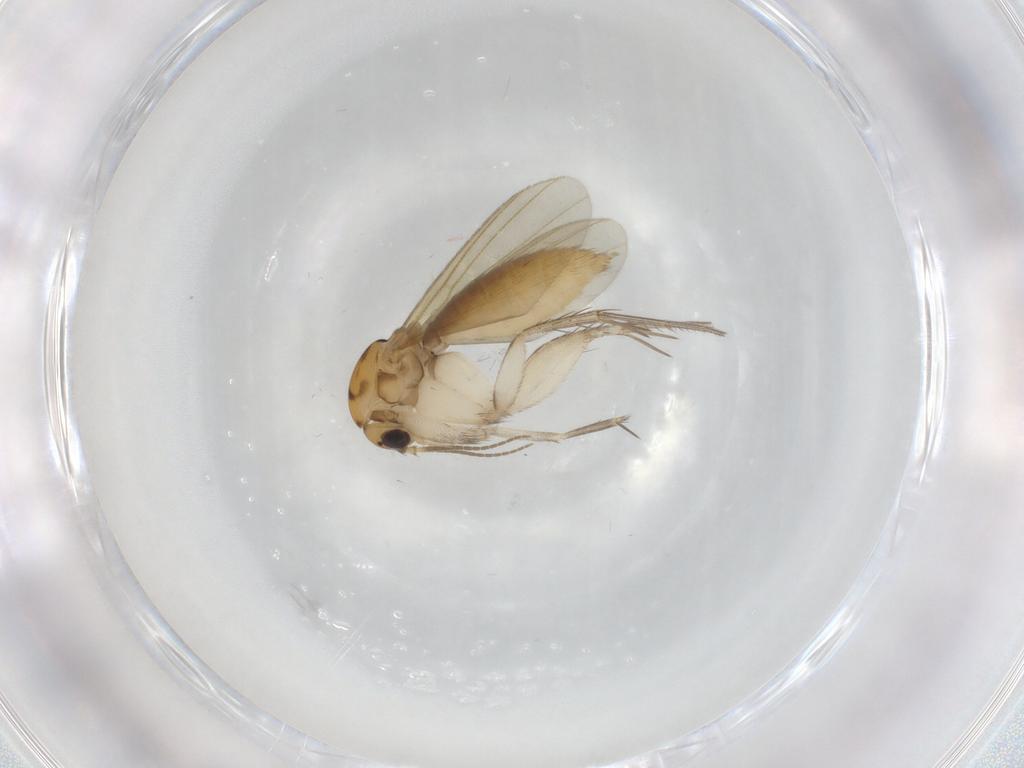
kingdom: Animalia
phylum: Arthropoda
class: Insecta
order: Diptera
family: Mycetophilidae
